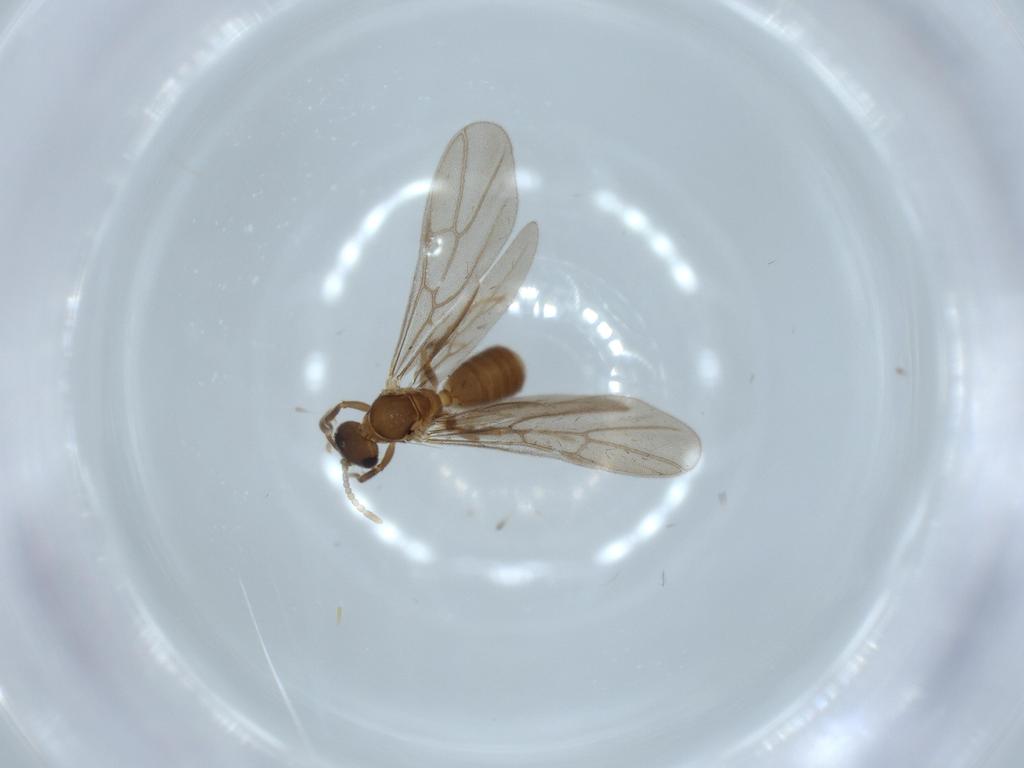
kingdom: Animalia
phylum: Arthropoda
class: Insecta
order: Hymenoptera
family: Formicidae
